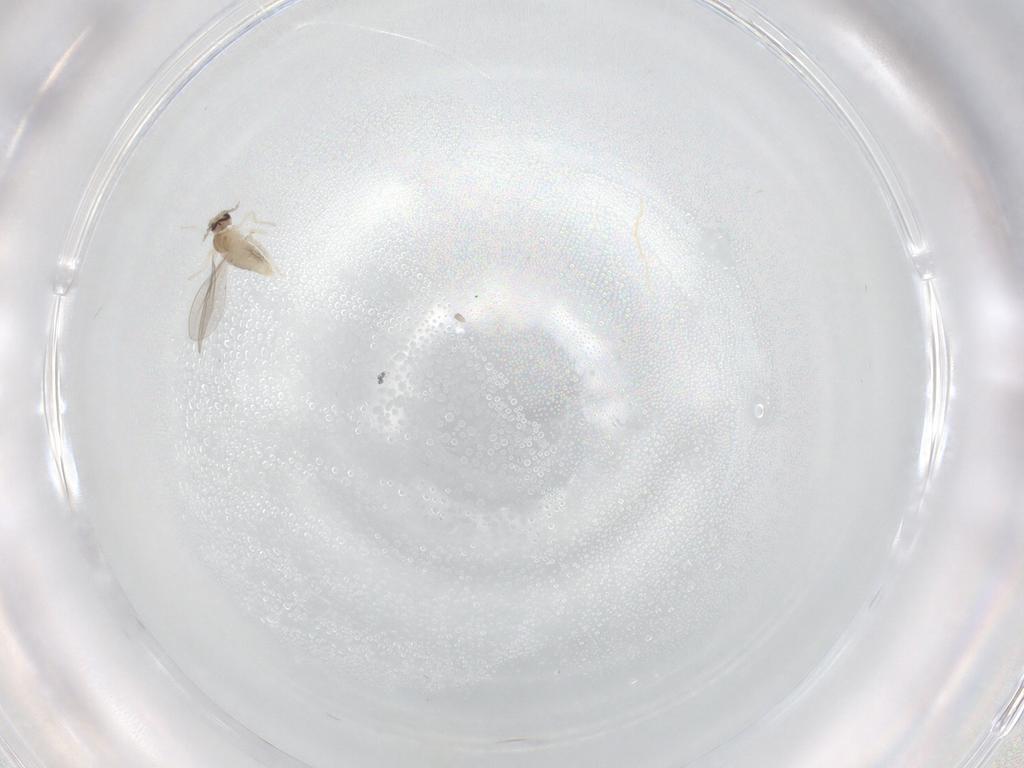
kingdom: Animalia
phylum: Arthropoda
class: Insecta
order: Diptera
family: Cecidomyiidae
